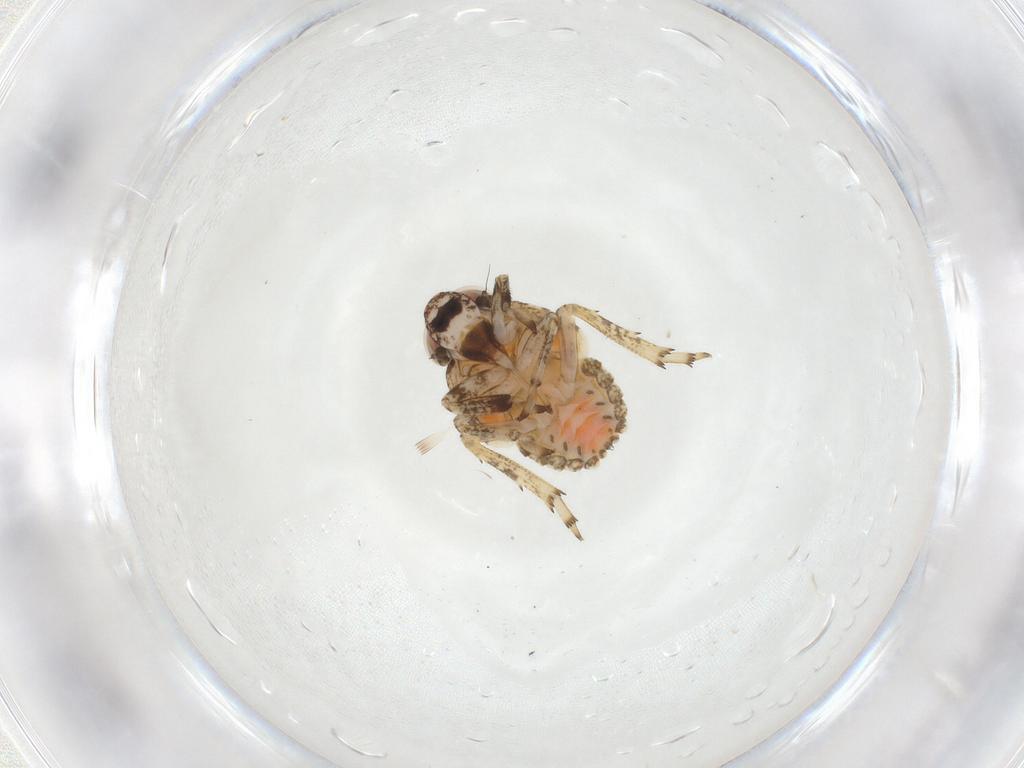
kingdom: Animalia
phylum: Arthropoda
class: Insecta
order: Hemiptera
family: Issidae
